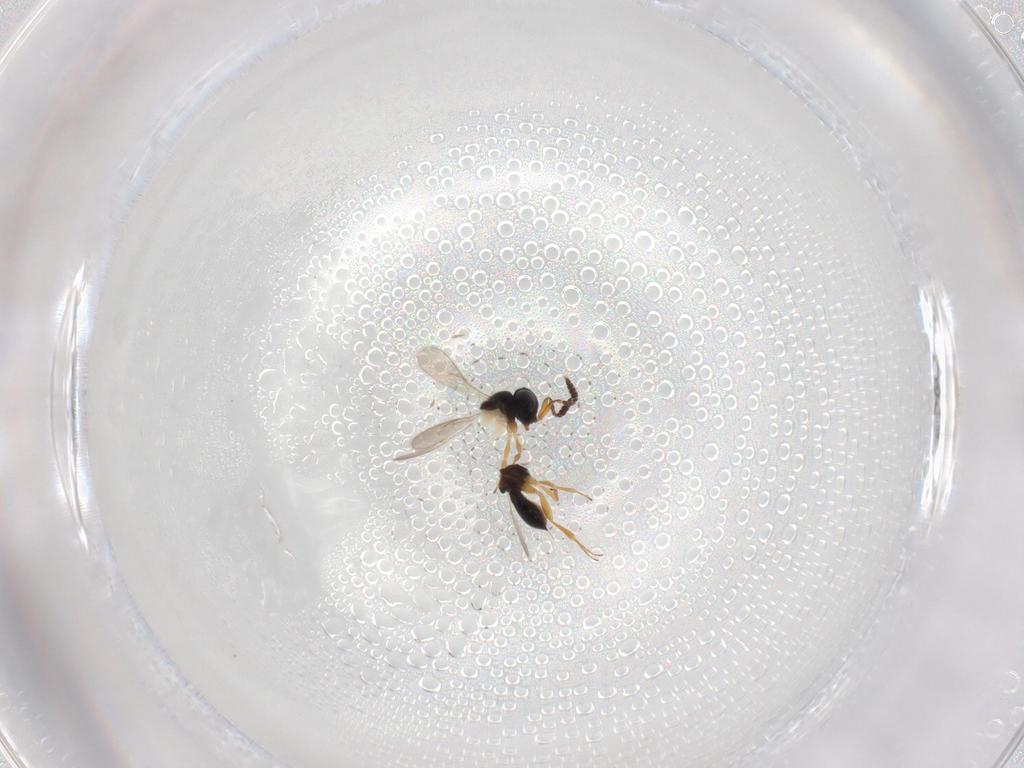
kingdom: Animalia
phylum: Arthropoda
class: Insecta
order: Hymenoptera
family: Scelionidae
